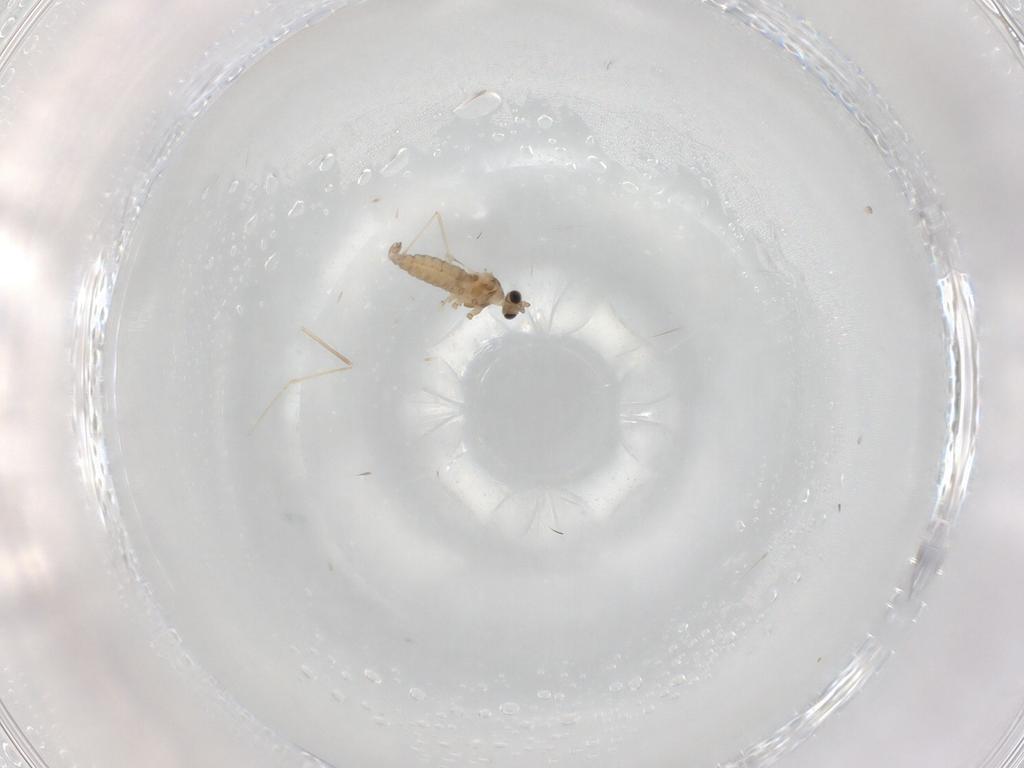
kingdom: Animalia
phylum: Arthropoda
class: Insecta
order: Diptera
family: Cecidomyiidae
